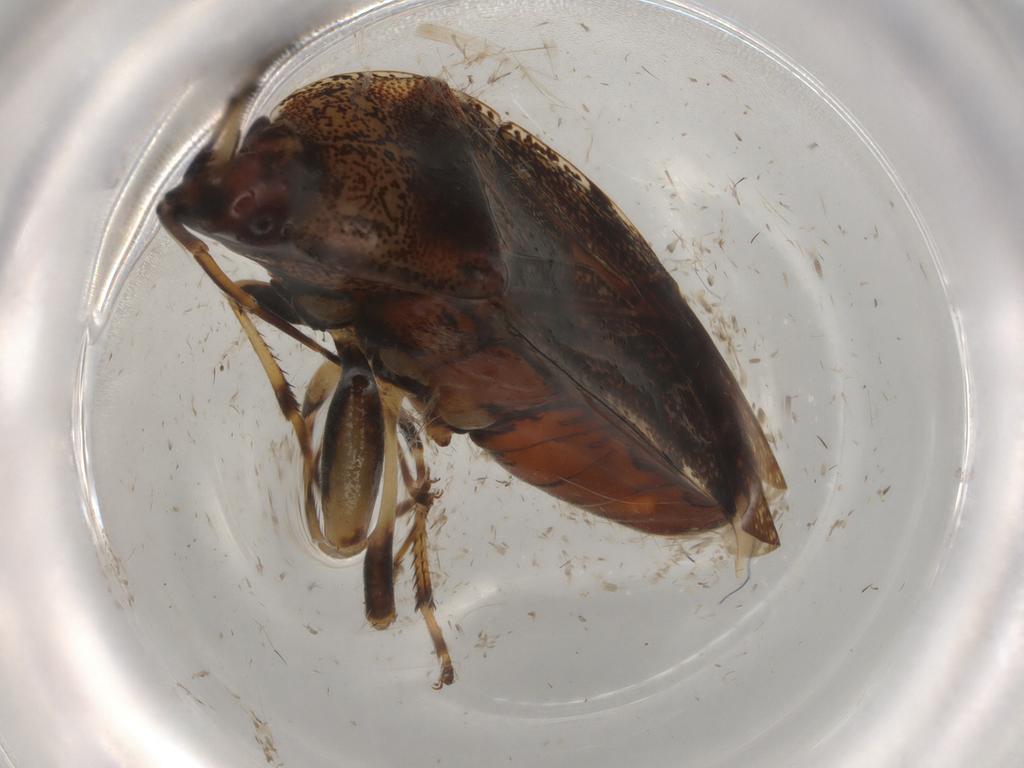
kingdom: Animalia
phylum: Arthropoda
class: Insecta
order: Hemiptera
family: Rhyparochromidae
